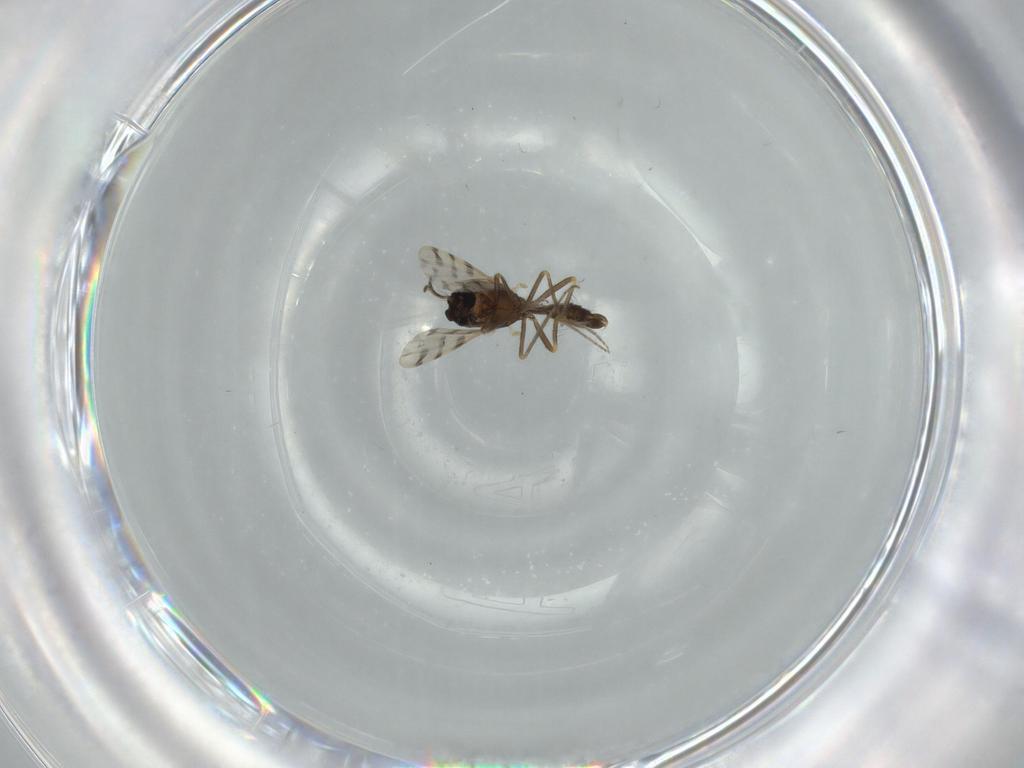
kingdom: Animalia
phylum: Arthropoda
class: Insecta
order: Diptera
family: Ceratopogonidae
